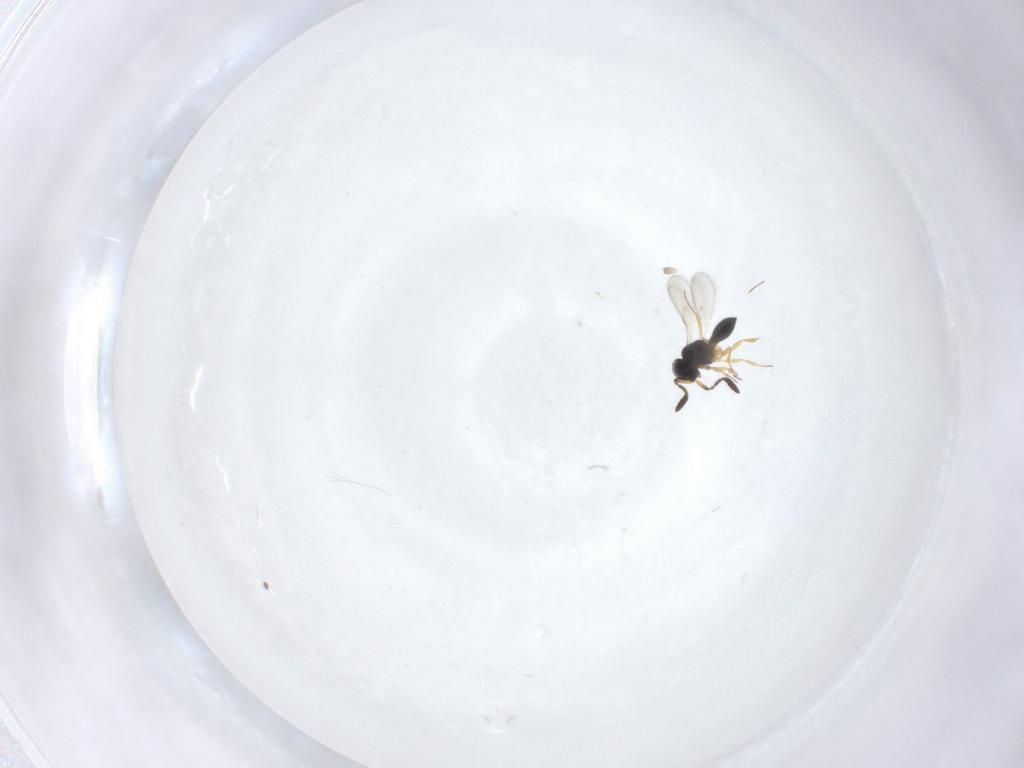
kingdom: Animalia
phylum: Arthropoda
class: Insecta
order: Hymenoptera
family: Scelionidae
